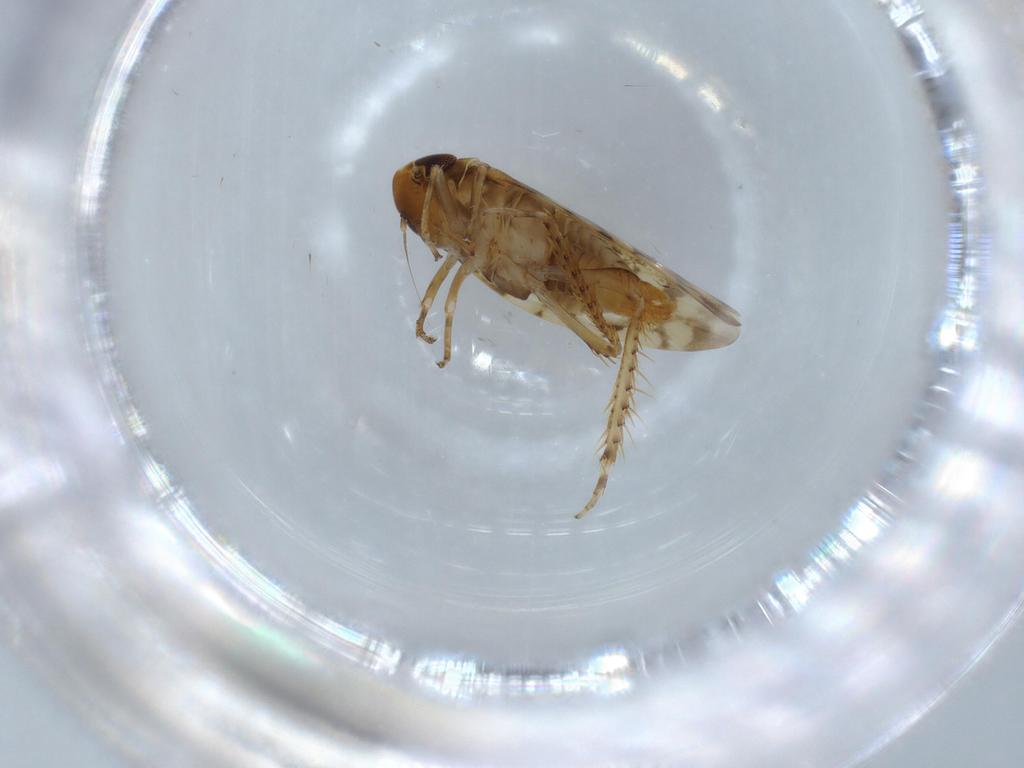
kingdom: Animalia
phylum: Arthropoda
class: Insecta
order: Hemiptera
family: Cicadellidae
